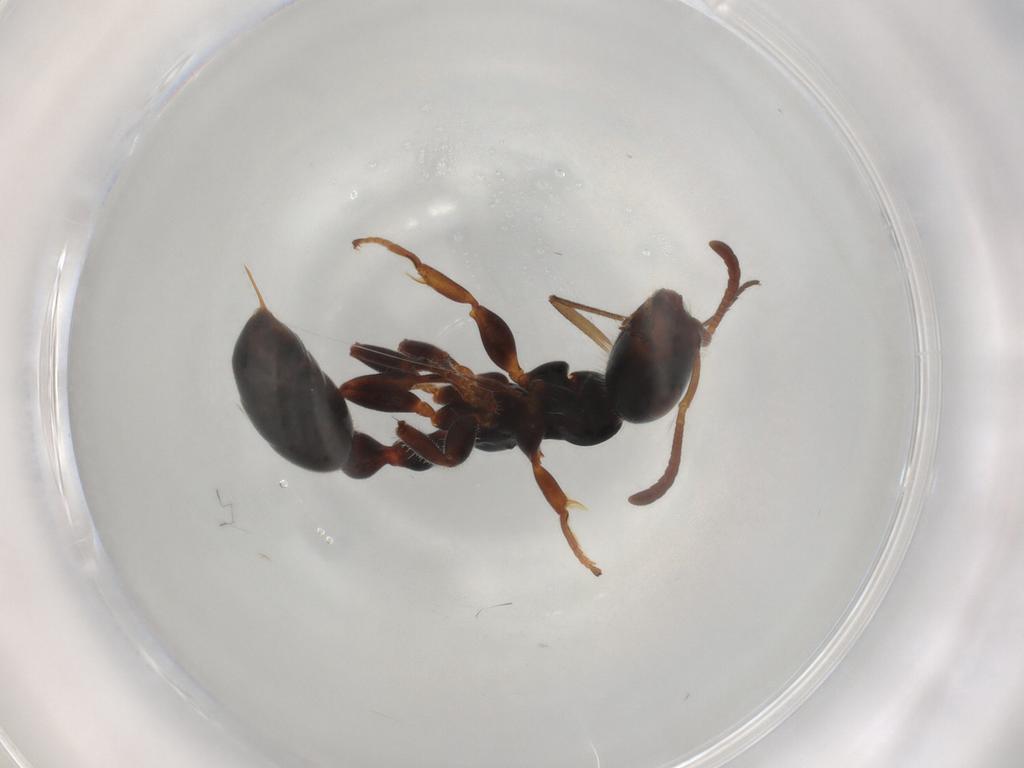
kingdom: Animalia
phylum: Arthropoda
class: Insecta
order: Hymenoptera
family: Formicidae
